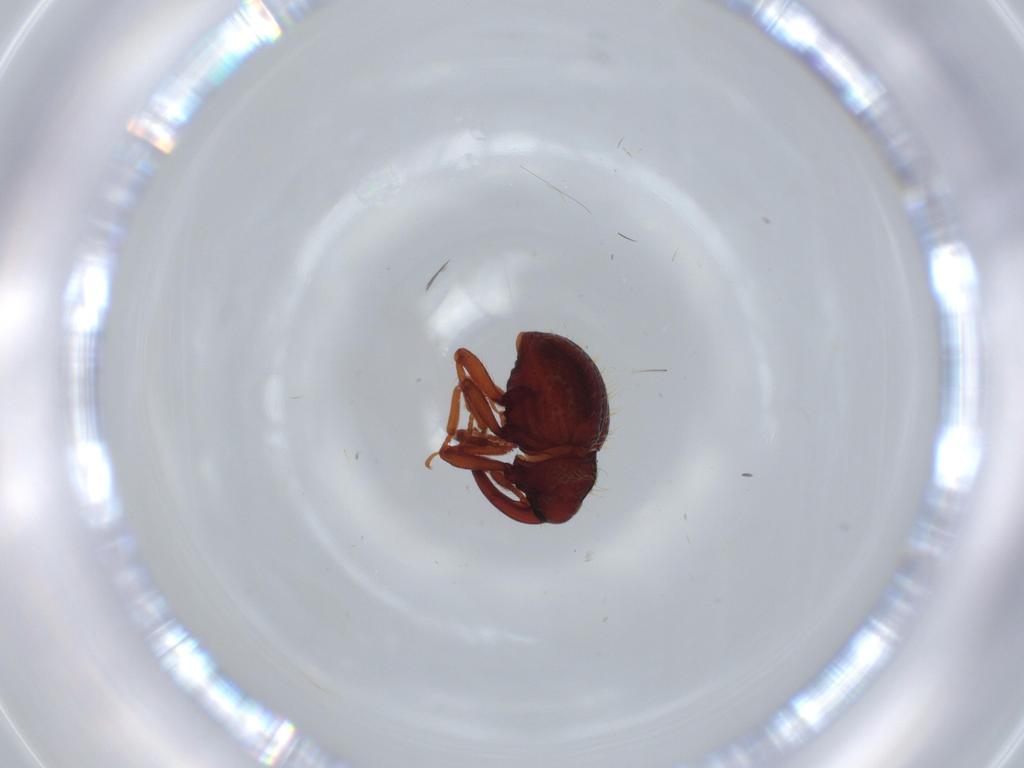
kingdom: Animalia
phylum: Arthropoda
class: Insecta
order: Coleoptera
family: Curculionidae
